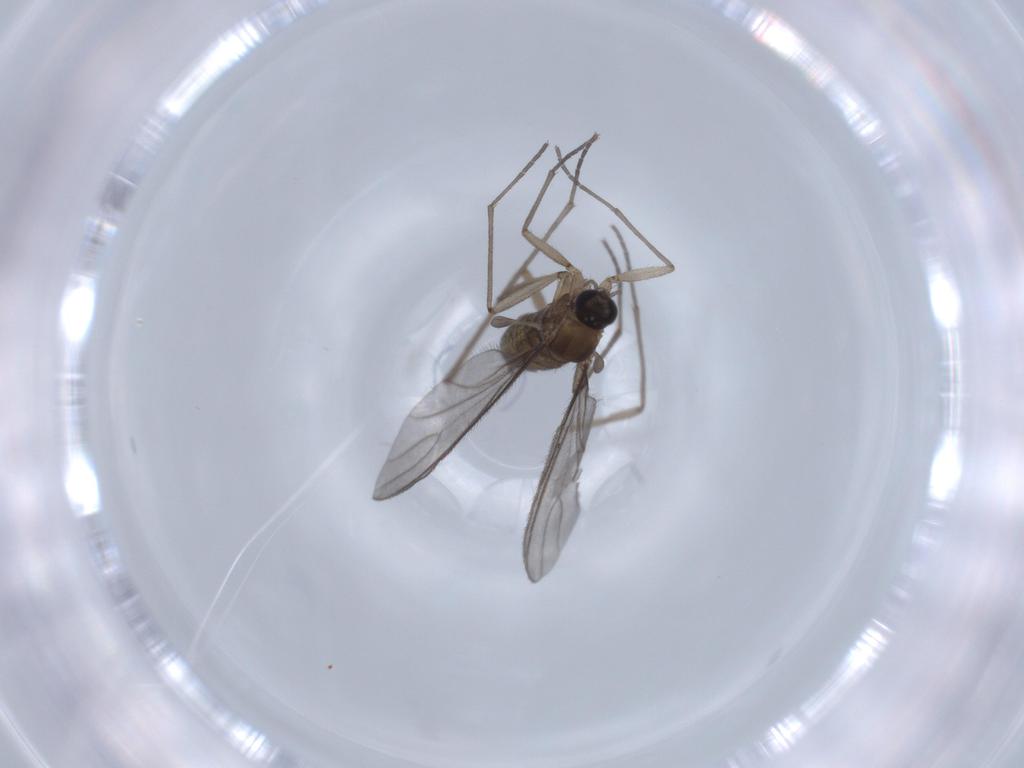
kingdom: Animalia
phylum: Arthropoda
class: Insecta
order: Diptera
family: Sciaridae
